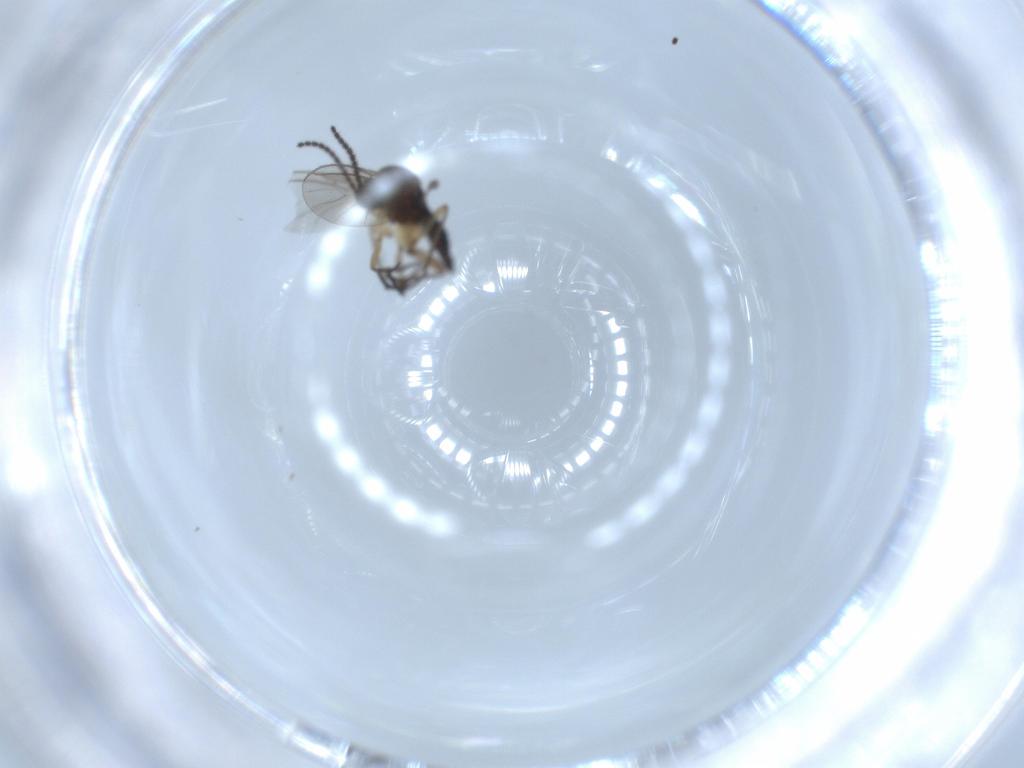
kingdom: Animalia
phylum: Arthropoda
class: Insecta
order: Diptera
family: Sciaridae
